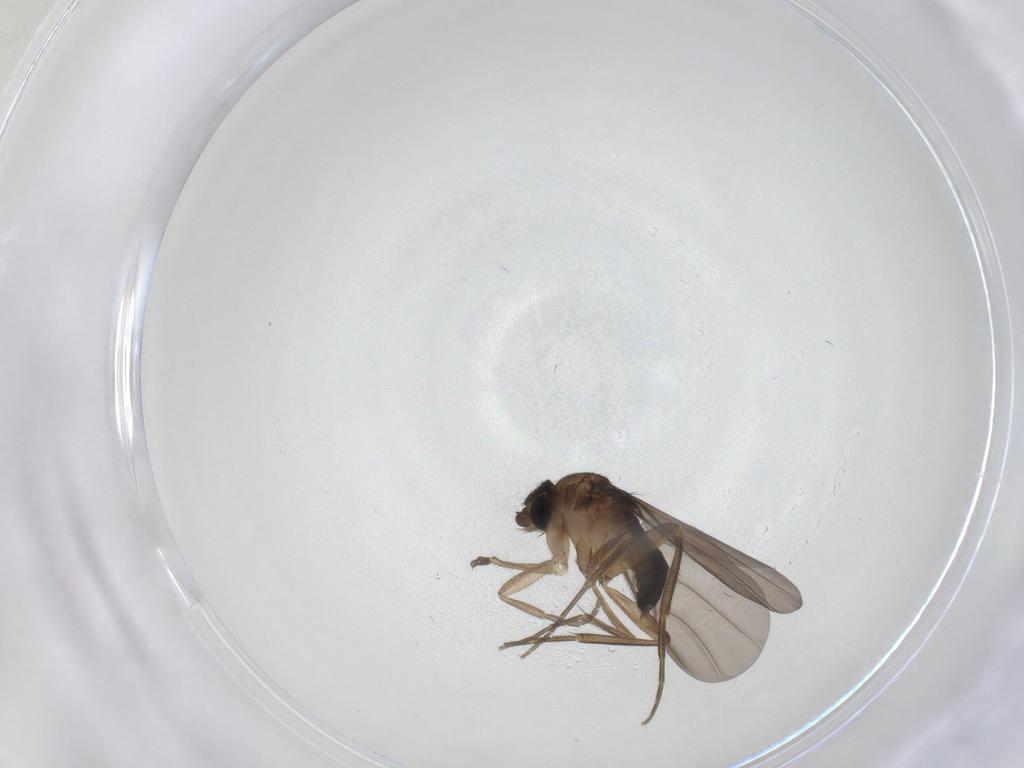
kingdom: Animalia
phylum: Arthropoda
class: Insecta
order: Diptera
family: Phoridae
